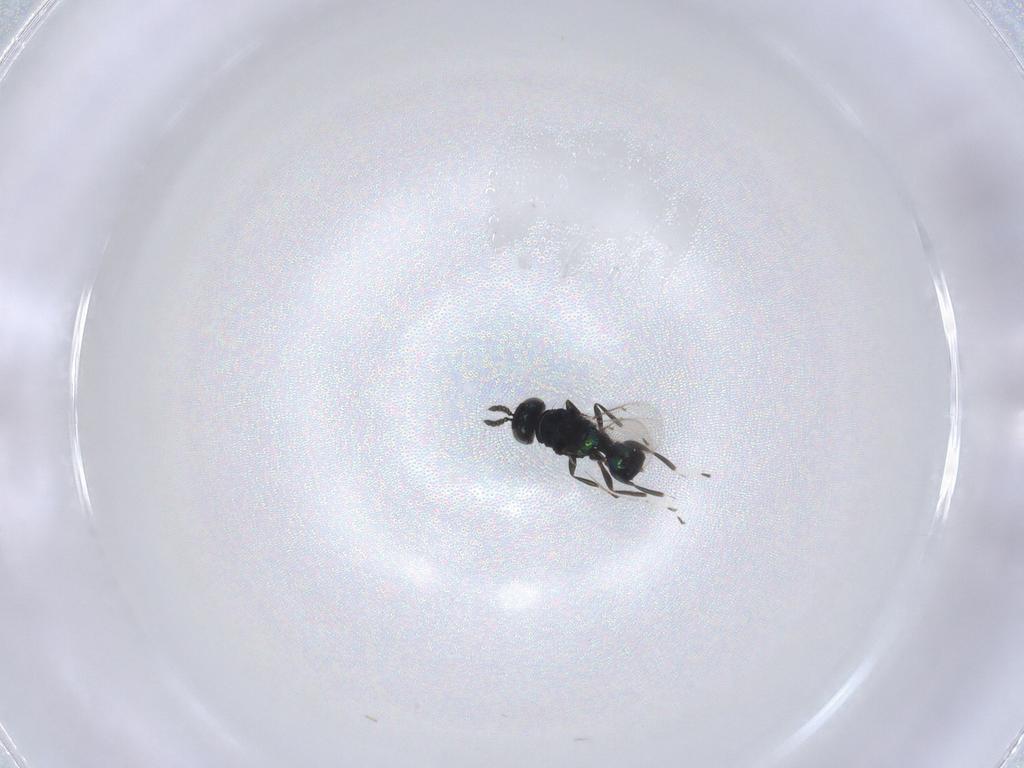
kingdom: Animalia
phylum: Arthropoda
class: Insecta
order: Hymenoptera
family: Eulophidae
